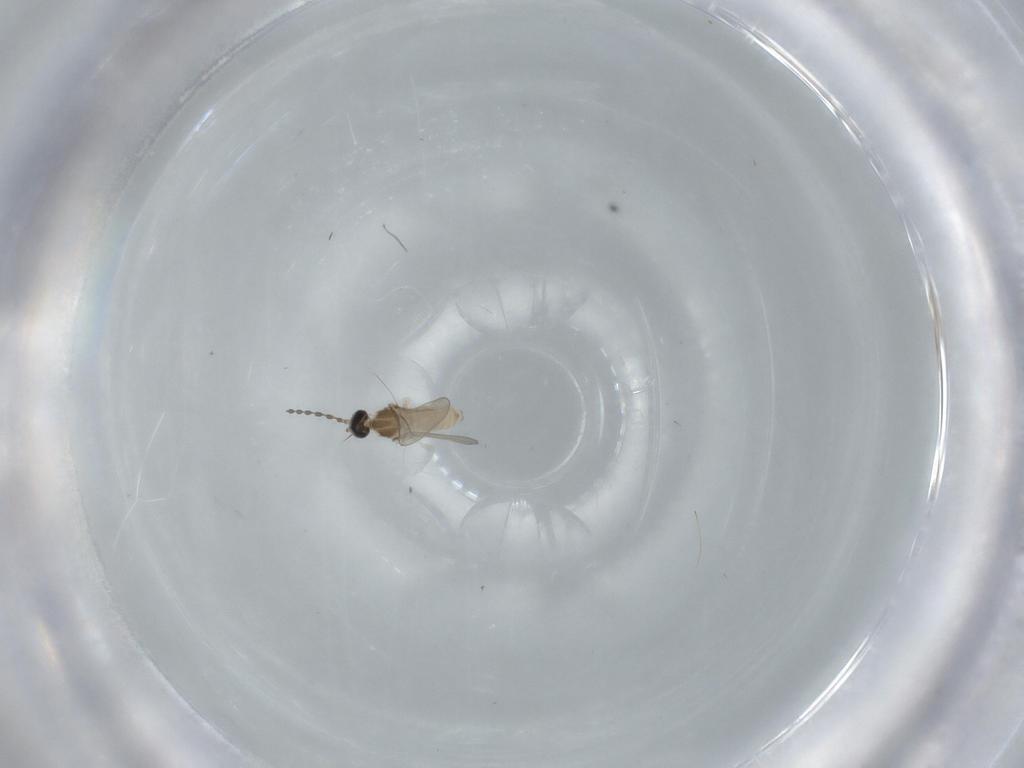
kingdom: Animalia
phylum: Arthropoda
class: Insecta
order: Diptera
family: Cecidomyiidae
